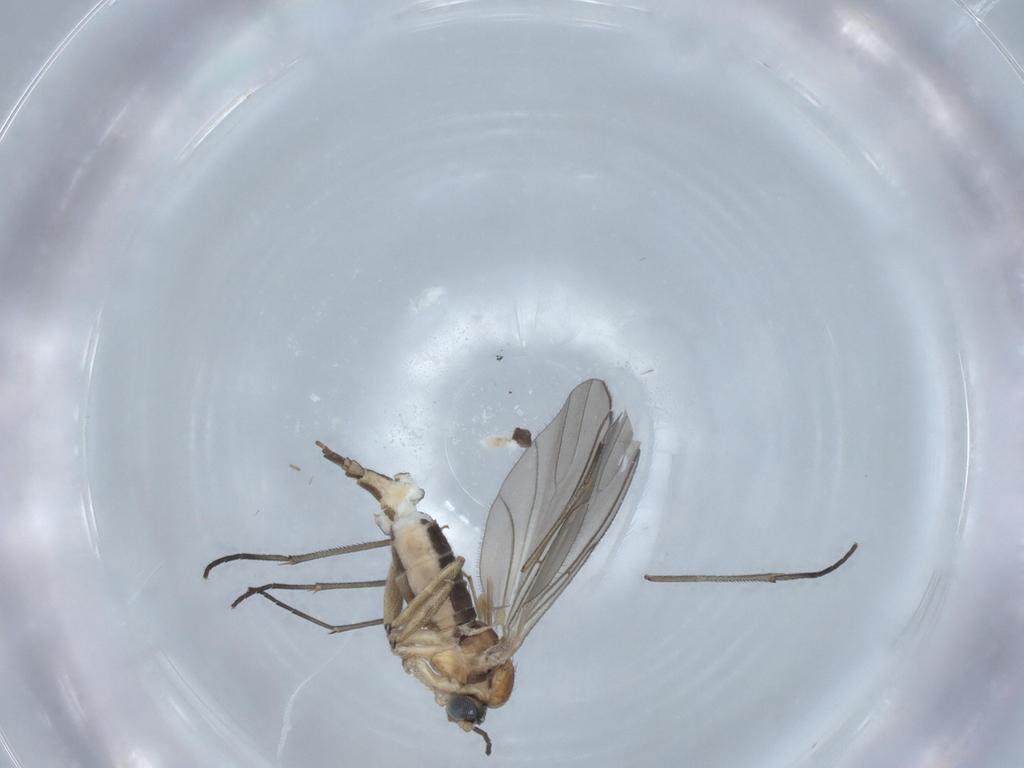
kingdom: Animalia
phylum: Arthropoda
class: Insecta
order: Diptera
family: Sciaridae
